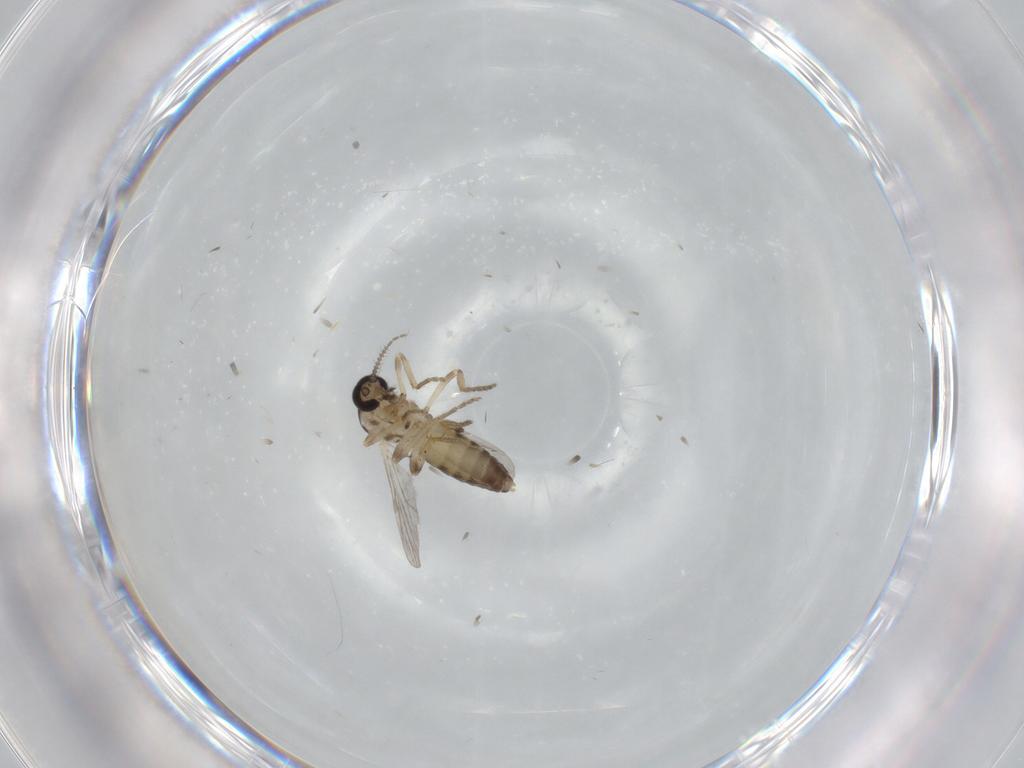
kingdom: Animalia
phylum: Arthropoda
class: Insecta
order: Diptera
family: Ceratopogonidae
